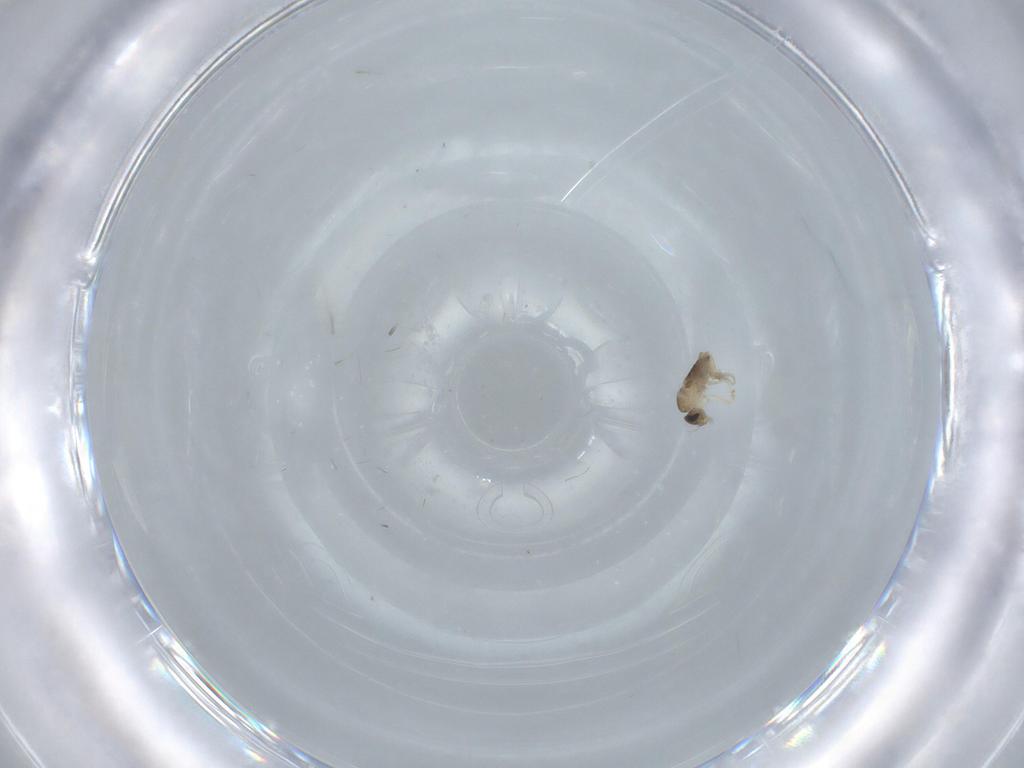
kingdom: Animalia
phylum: Arthropoda
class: Insecta
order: Diptera
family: Phoridae
